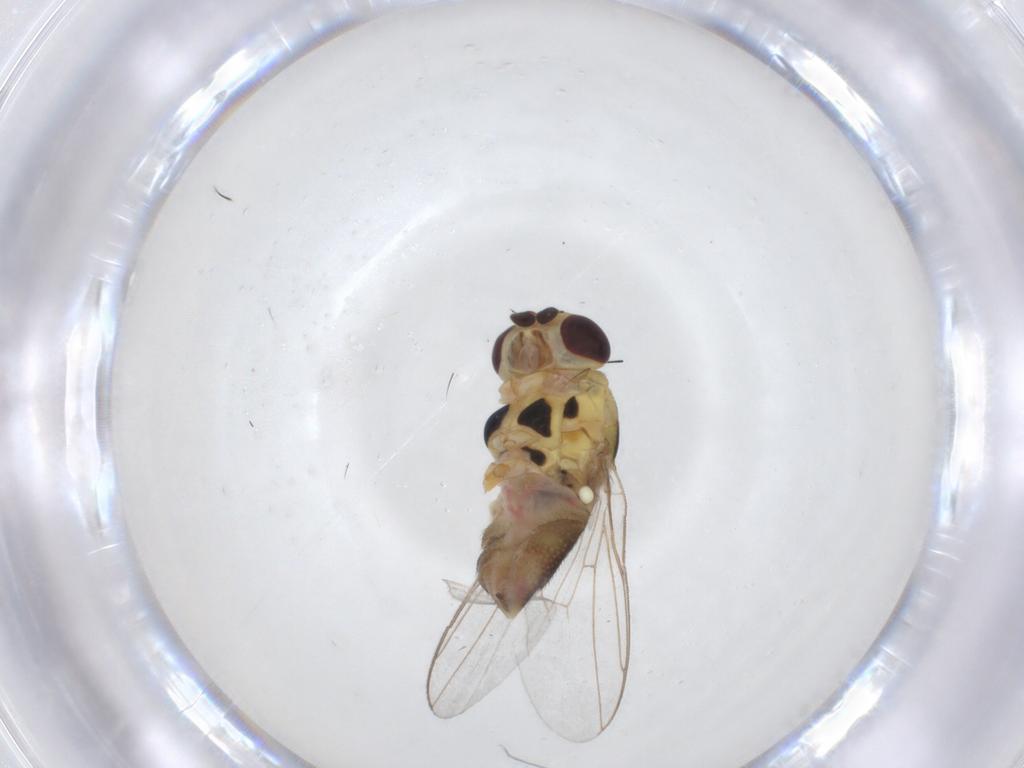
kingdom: Animalia
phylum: Arthropoda
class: Insecta
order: Diptera
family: Chloropidae
